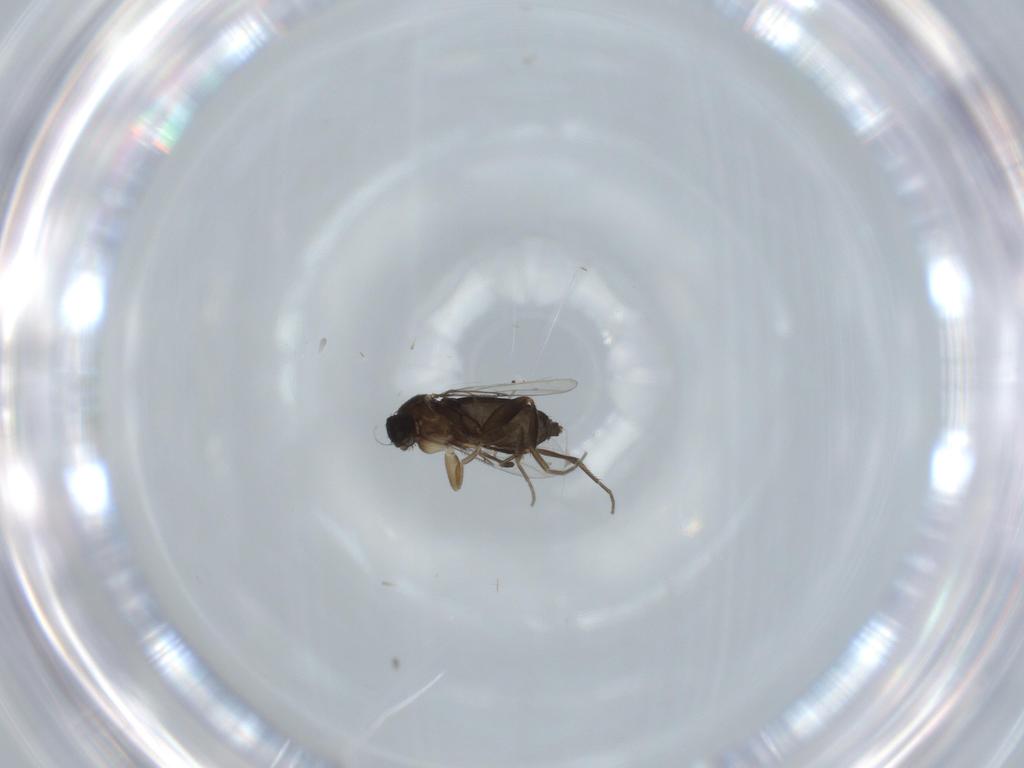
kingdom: Animalia
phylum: Arthropoda
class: Insecta
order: Diptera
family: Phoridae
